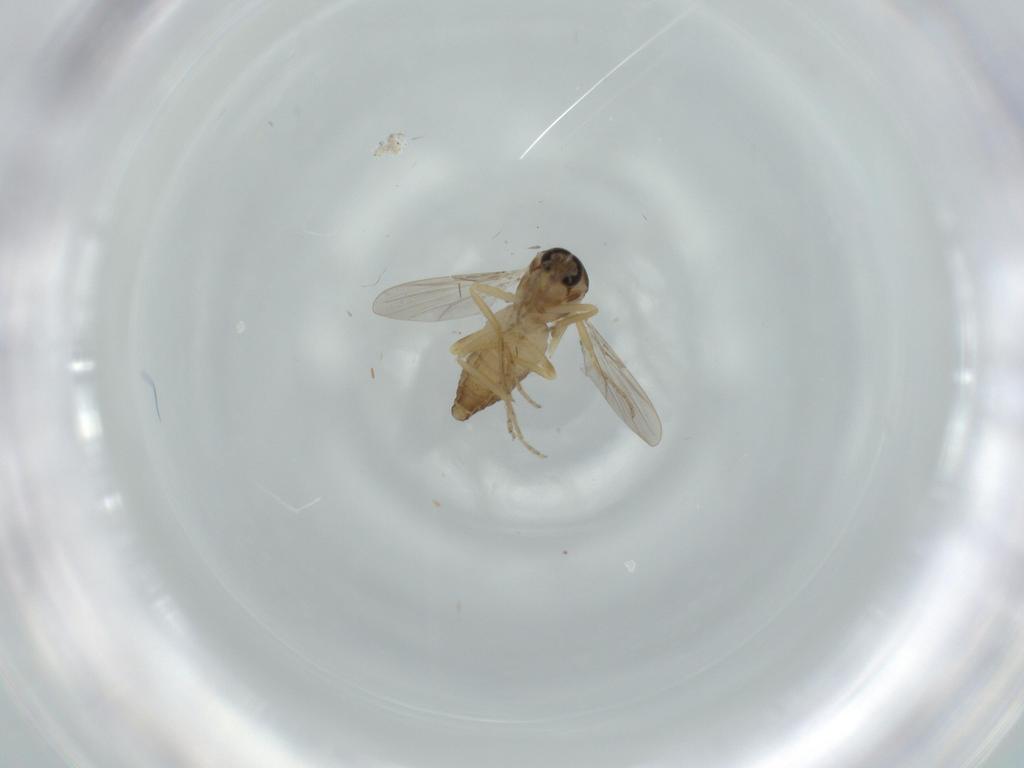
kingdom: Animalia
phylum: Arthropoda
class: Insecta
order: Diptera
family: Ceratopogonidae
